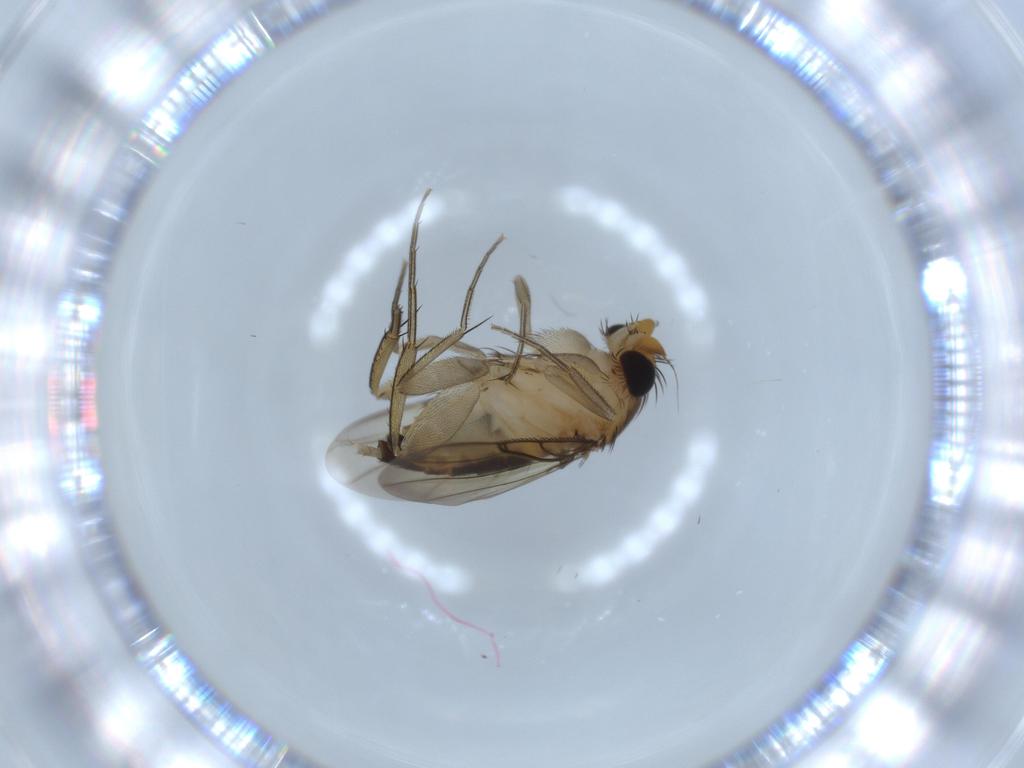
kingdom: Animalia
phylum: Arthropoda
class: Insecta
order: Diptera
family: Phoridae
